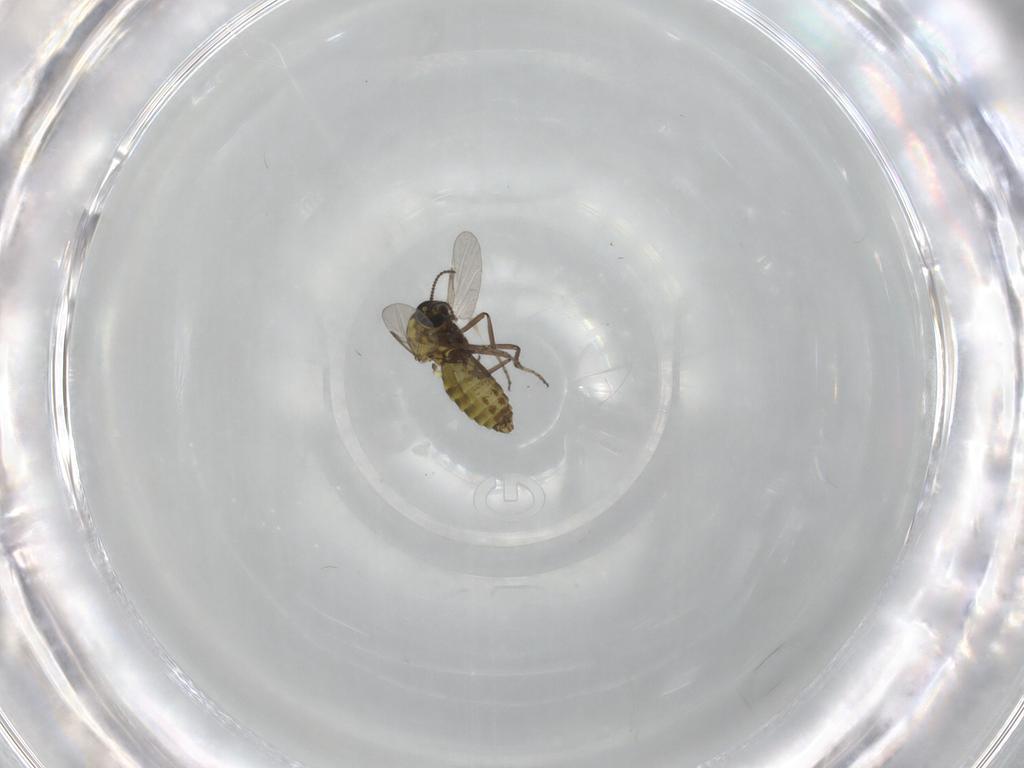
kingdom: Animalia
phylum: Arthropoda
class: Insecta
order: Diptera
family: Ceratopogonidae
